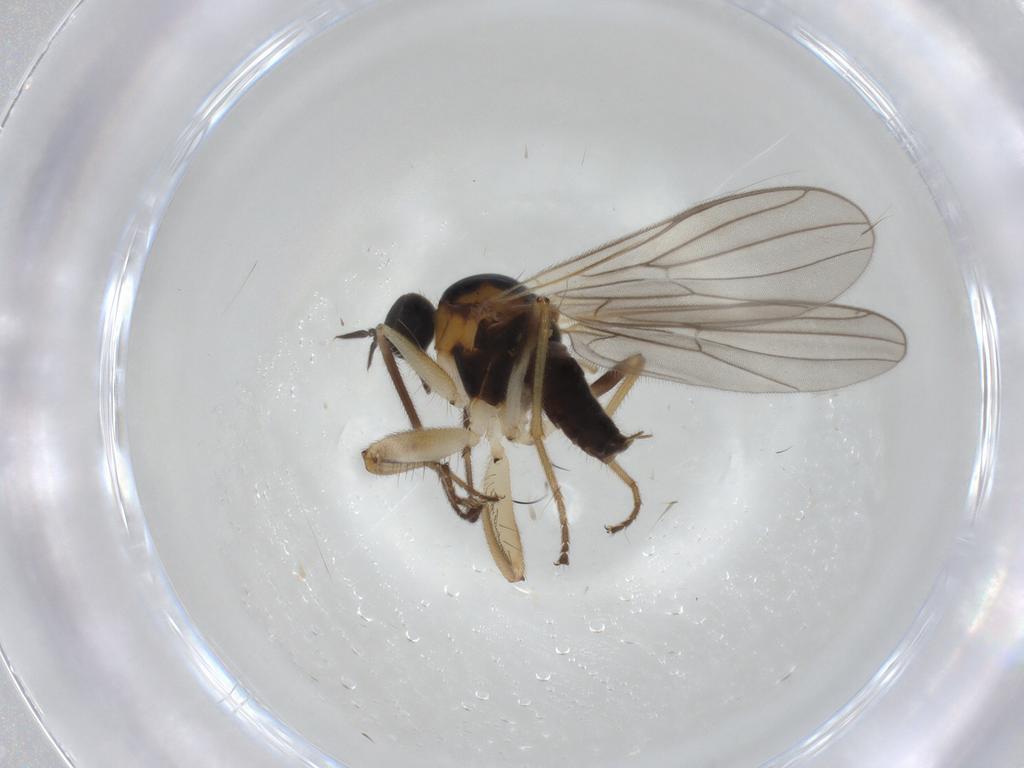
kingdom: Animalia
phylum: Arthropoda
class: Insecta
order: Diptera
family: Hybotidae
